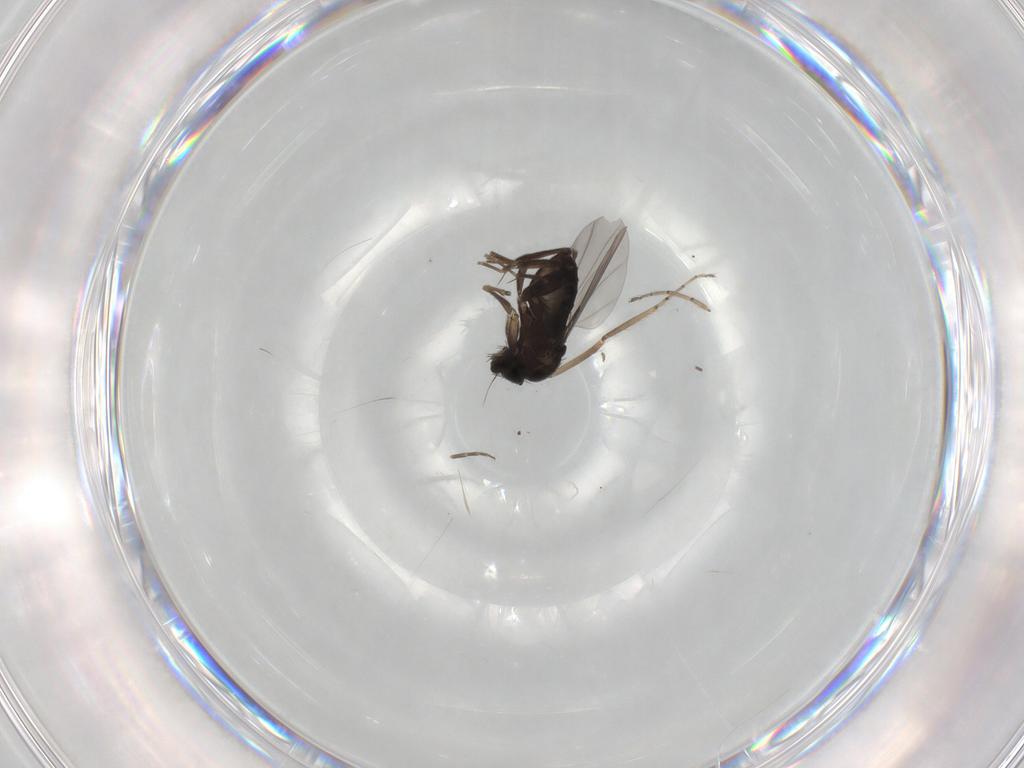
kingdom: Animalia
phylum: Arthropoda
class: Insecta
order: Diptera
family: Phoridae
